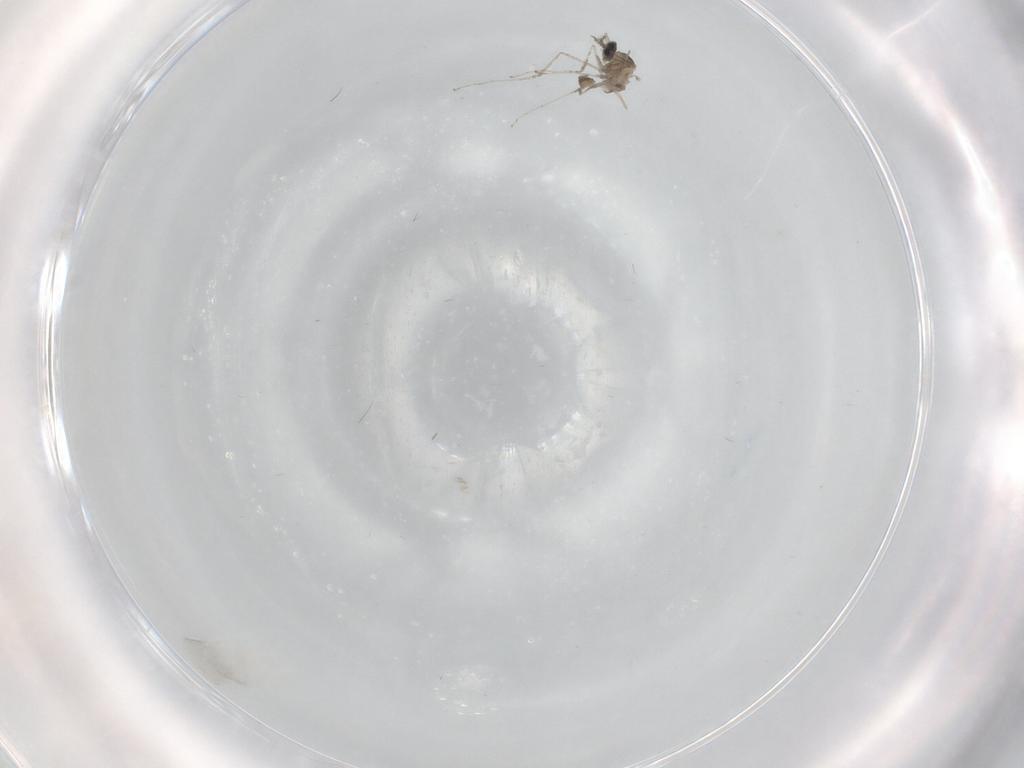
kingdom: Animalia
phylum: Arthropoda
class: Insecta
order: Diptera
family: Cecidomyiidae
